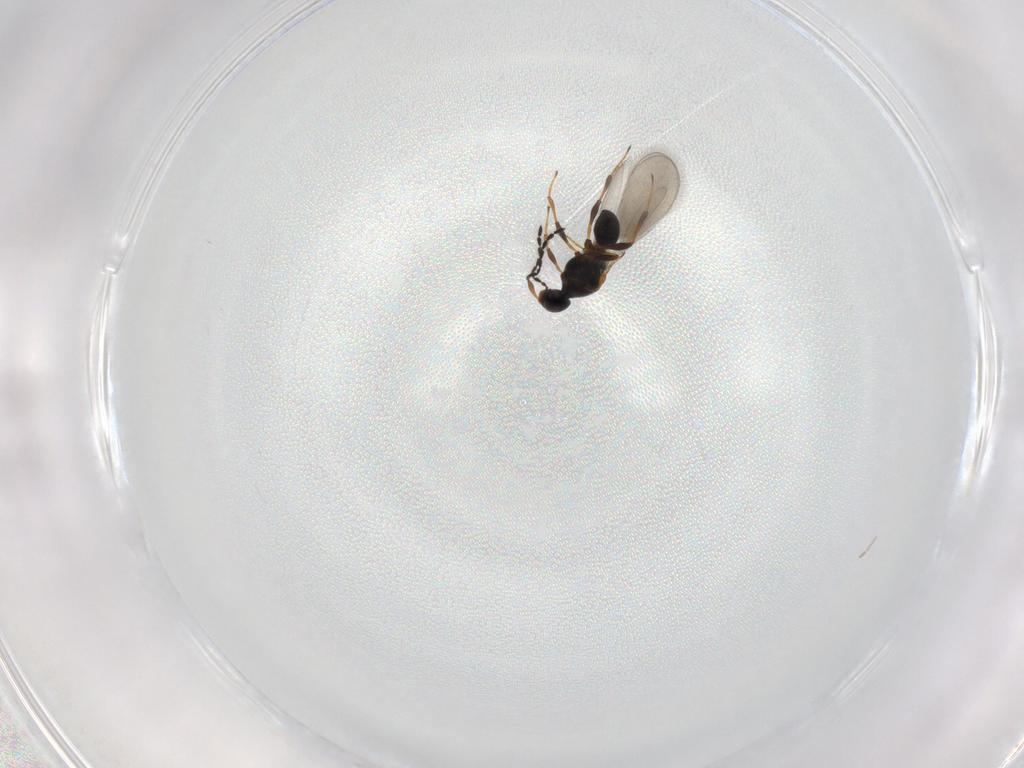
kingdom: Animalia
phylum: Arthropoda
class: Insecta
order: Hymenoptera
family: Platygastridae
